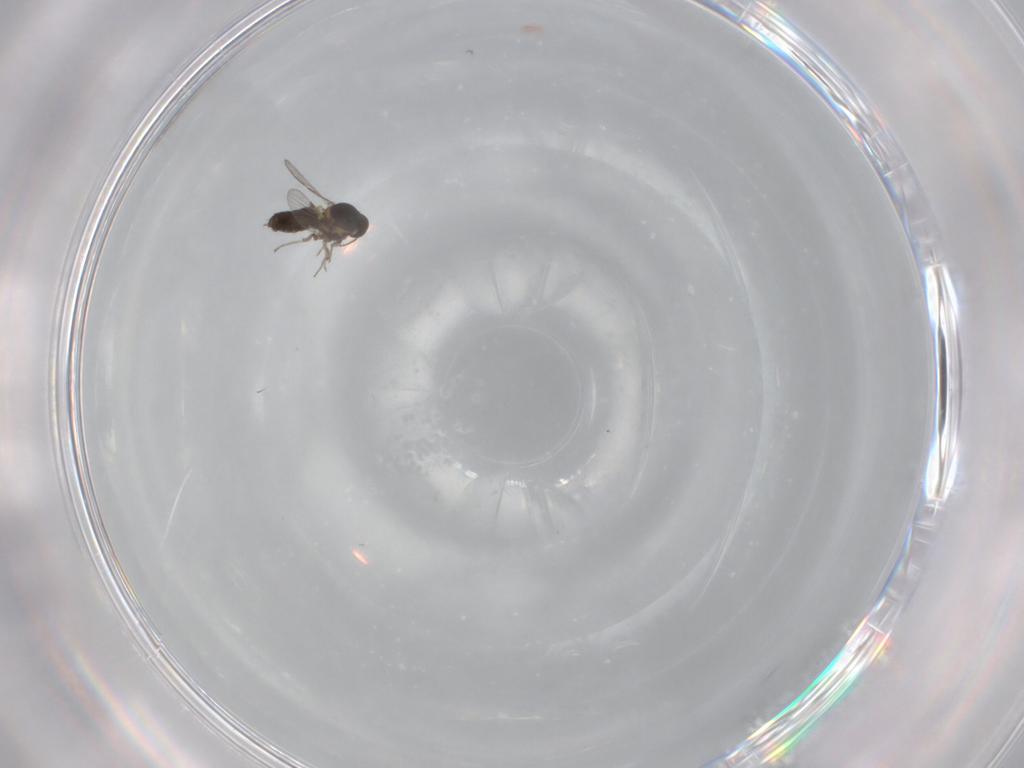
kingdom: Animalia
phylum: Arthropoda
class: Insecta
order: Diptera
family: Ceratopogonidae
